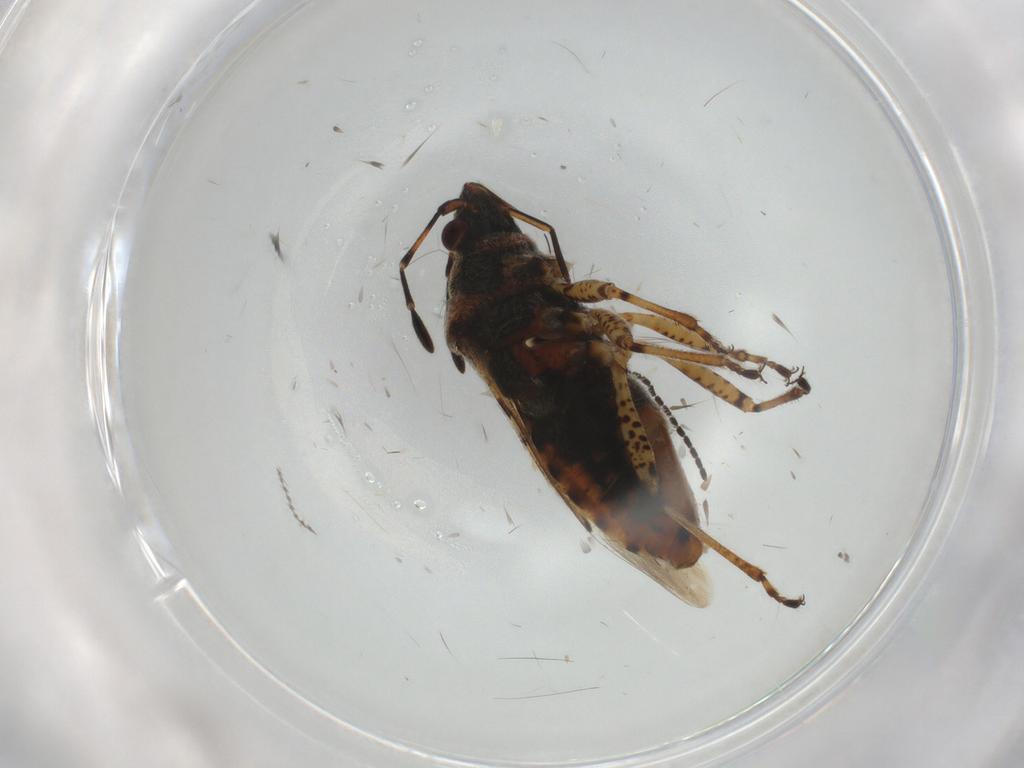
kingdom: Animalia
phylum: Arthropoda
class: Insecta
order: Hemiptera
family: Lygaeidae
